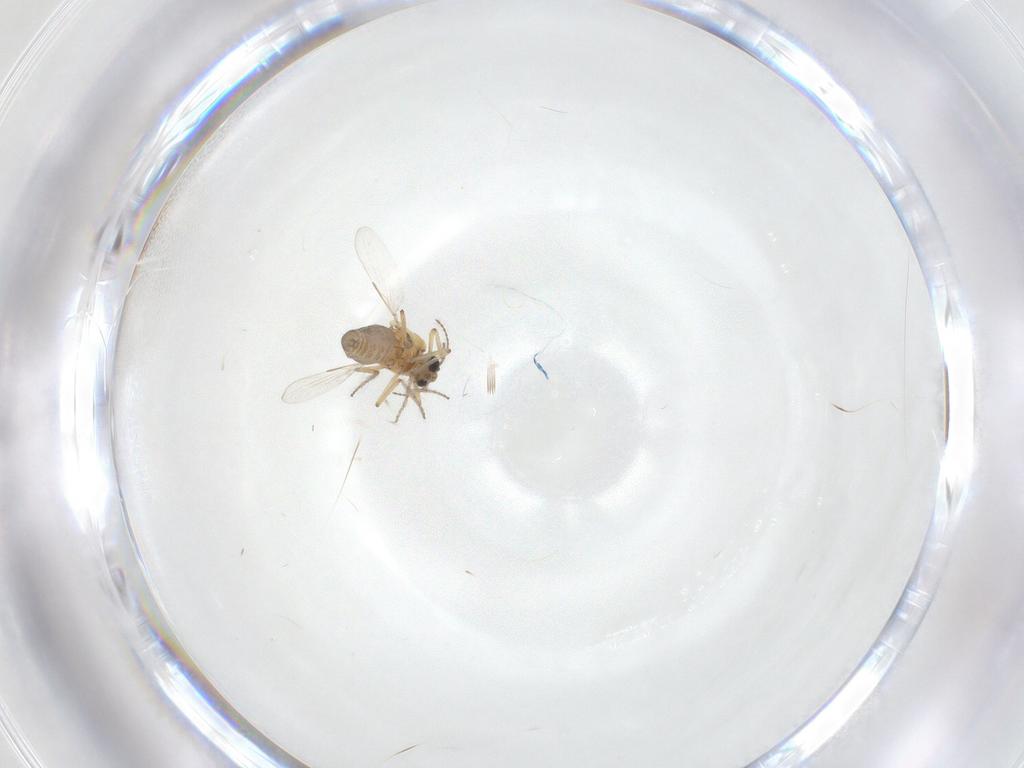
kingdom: Animalia
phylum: Arthropoda
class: Insecta
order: Diptera
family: Ceratopogonidae
